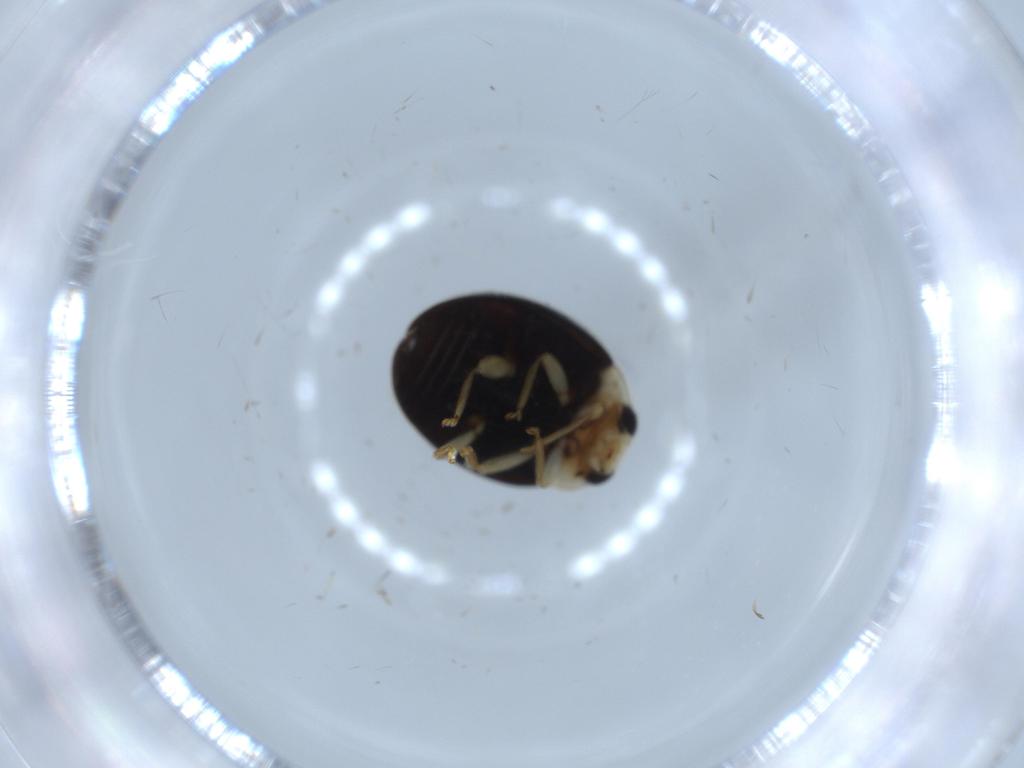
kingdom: Animalia
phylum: Arthropoda
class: Insecta
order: Coleoptera
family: Coccinellidae
